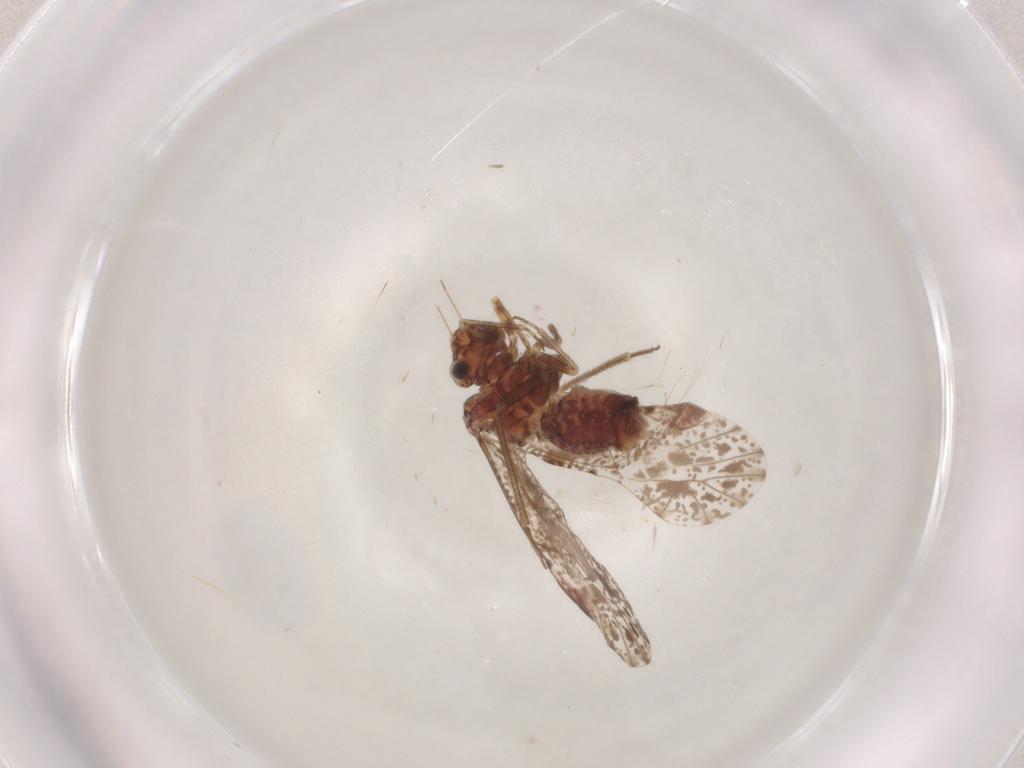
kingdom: Animalia
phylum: Arthropoda
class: Insecta
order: Psocodea
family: Psocidae
